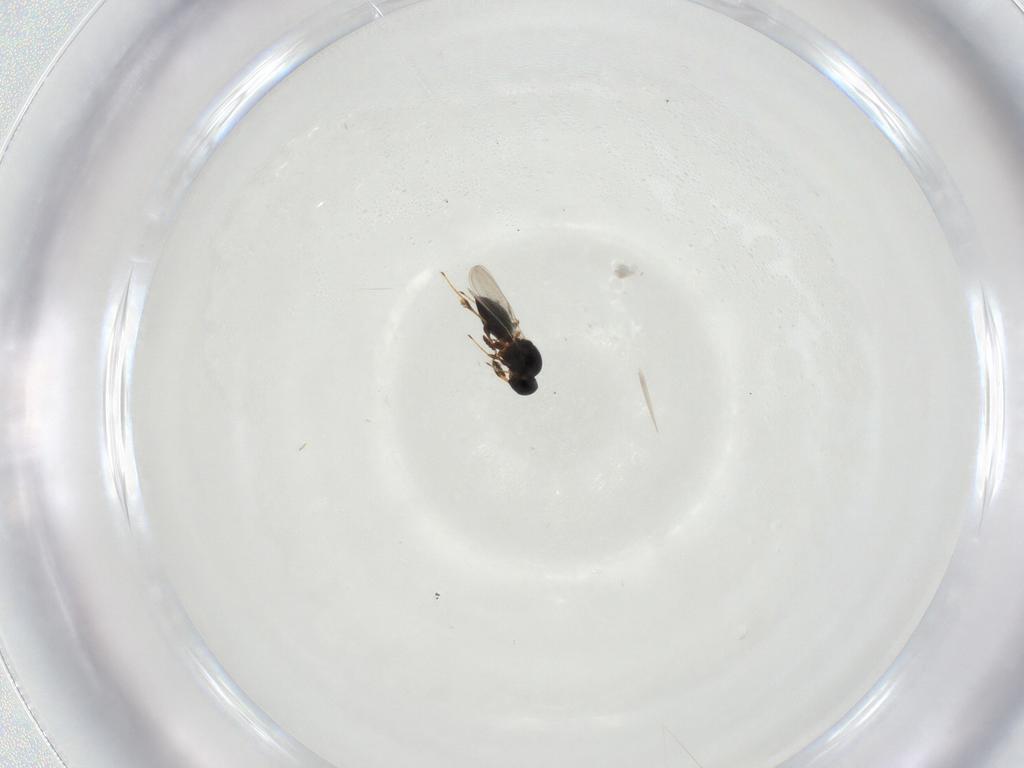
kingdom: Animalia
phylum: Arthropoda
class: Insecta
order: Hymenoptera
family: Platygastridae
